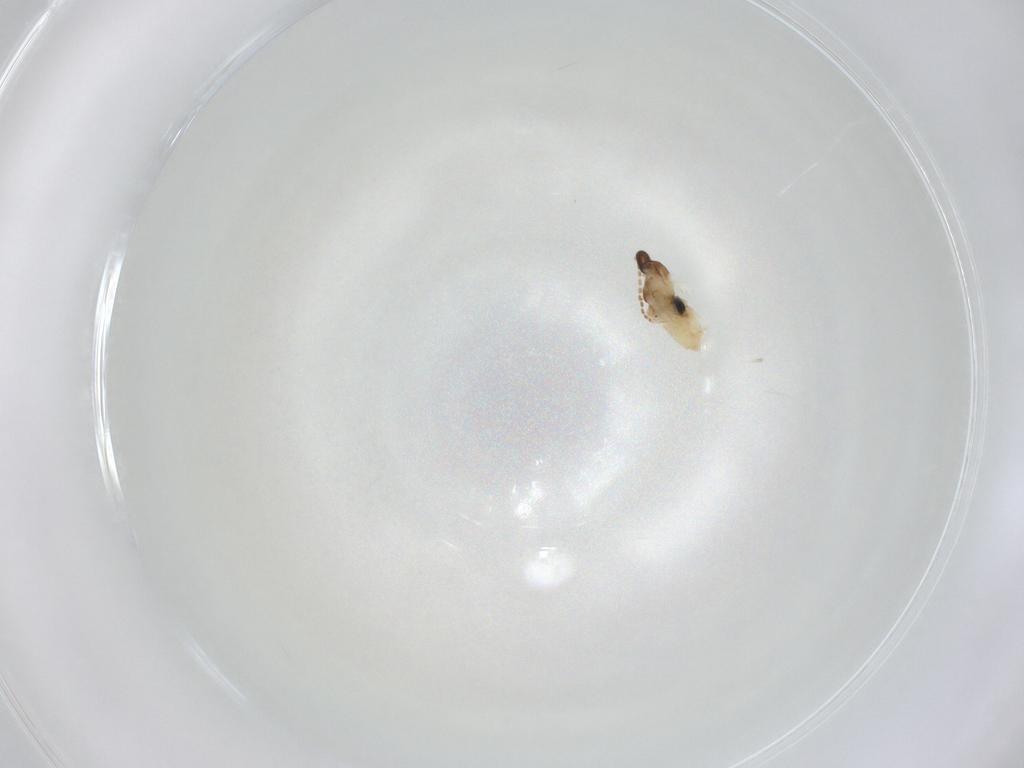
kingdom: Animalia
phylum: Arthropoda
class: Insecta
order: Diptera
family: Cecidomyiidae
